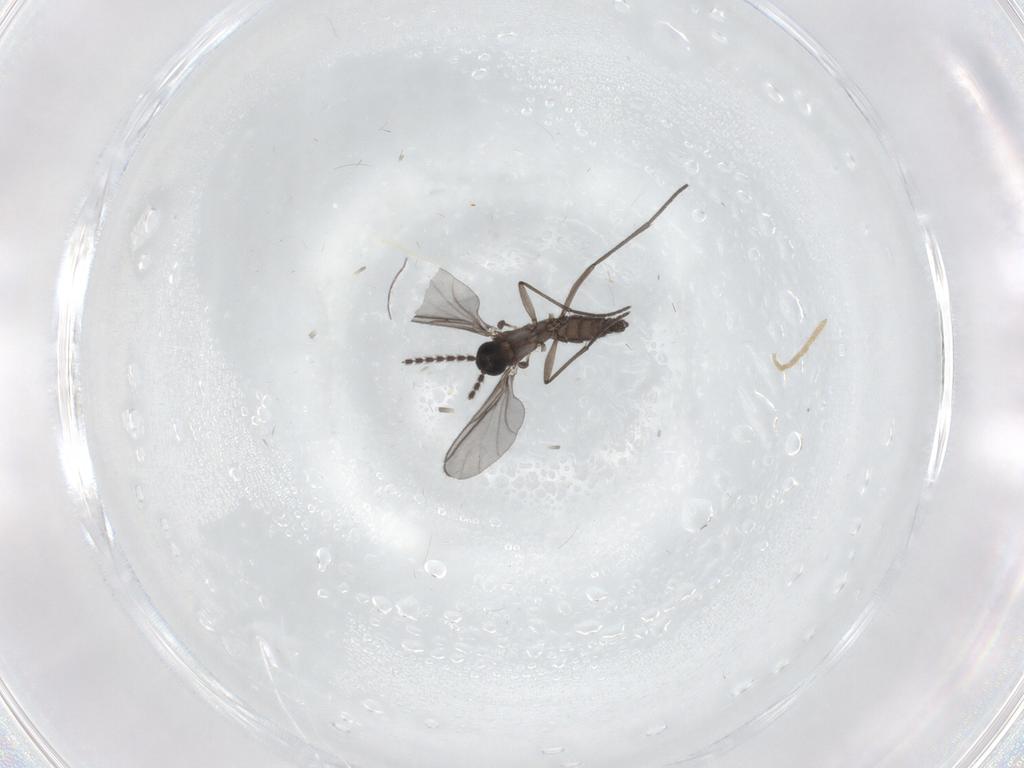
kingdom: Animalia
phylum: Arthropoda
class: Insecta
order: Diptera
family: Chironomidae
